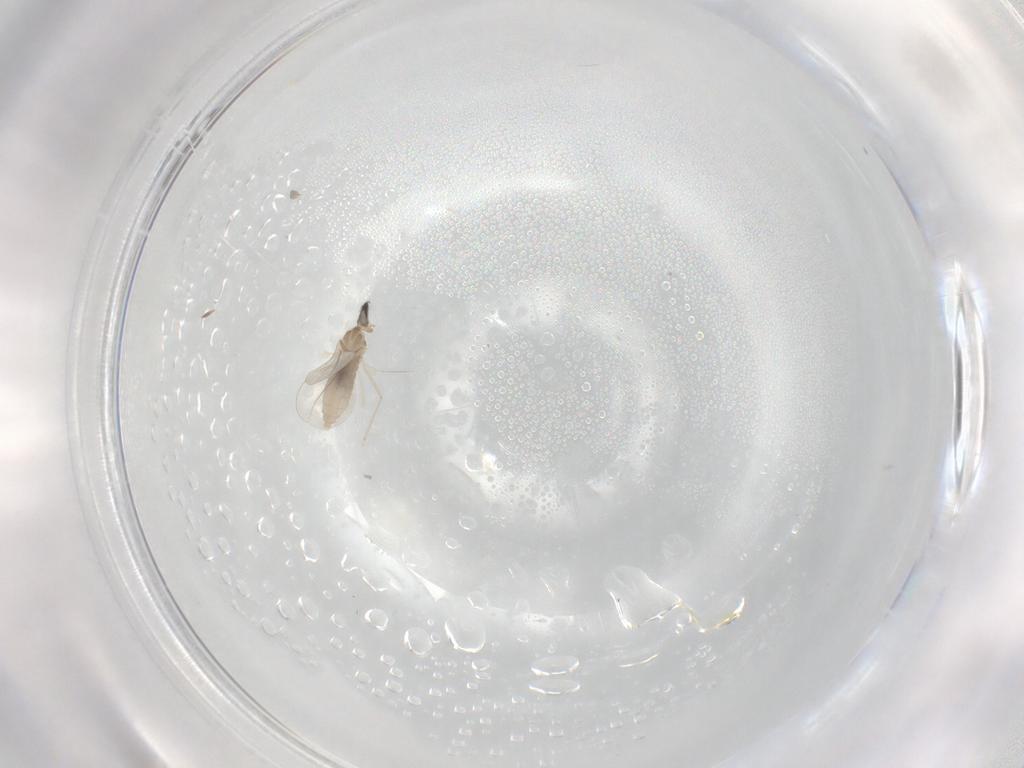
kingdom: Animalia
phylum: Arthropoda
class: Insecta
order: Diptera
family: Cecidomyiidae
